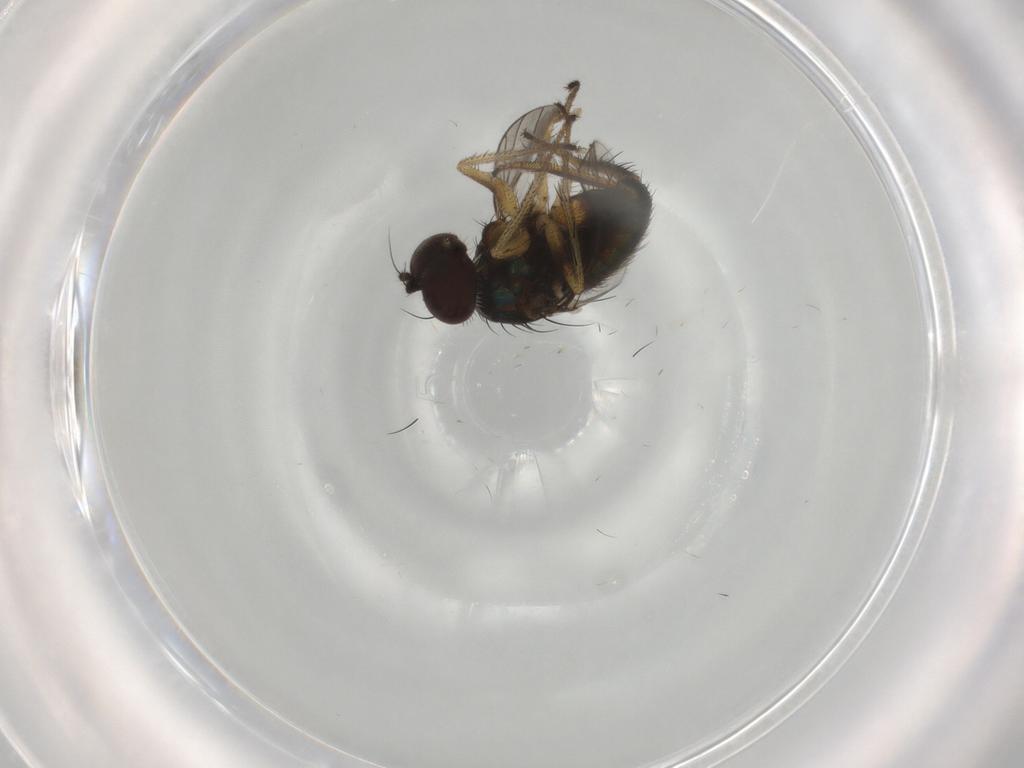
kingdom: Animalia
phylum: Arthropoda
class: Insecta
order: Diptera
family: Dolichopodidae
